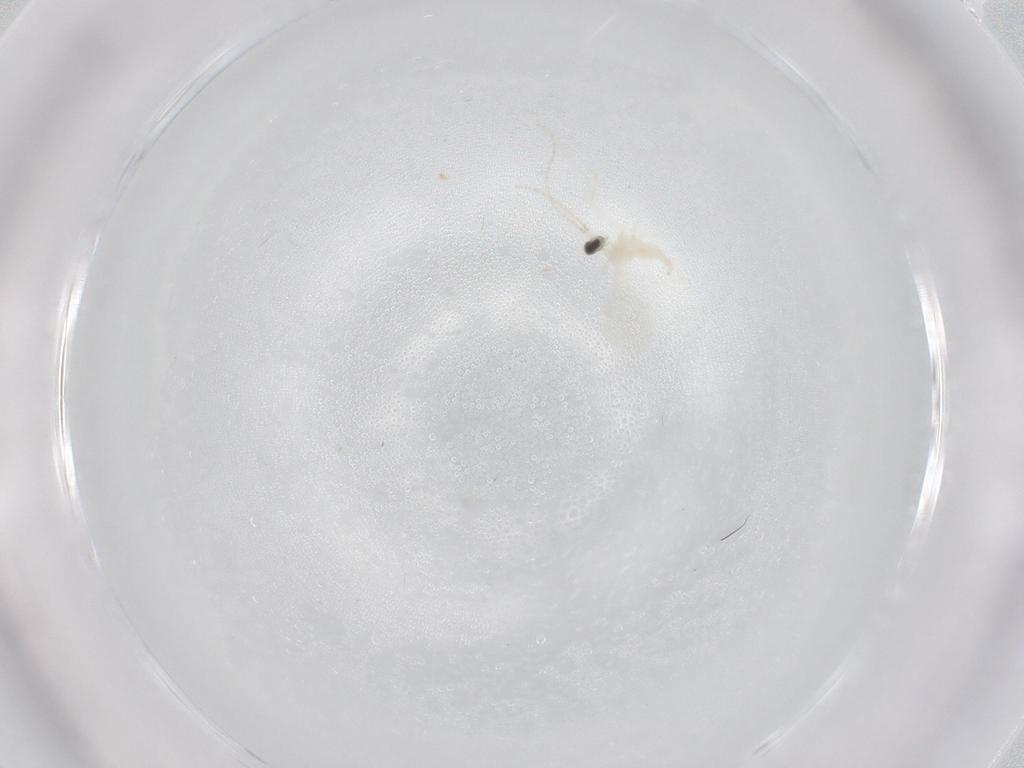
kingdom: Animalia
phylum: Arthropoda
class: Insecta
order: Diptera
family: Cecidomyiidae
